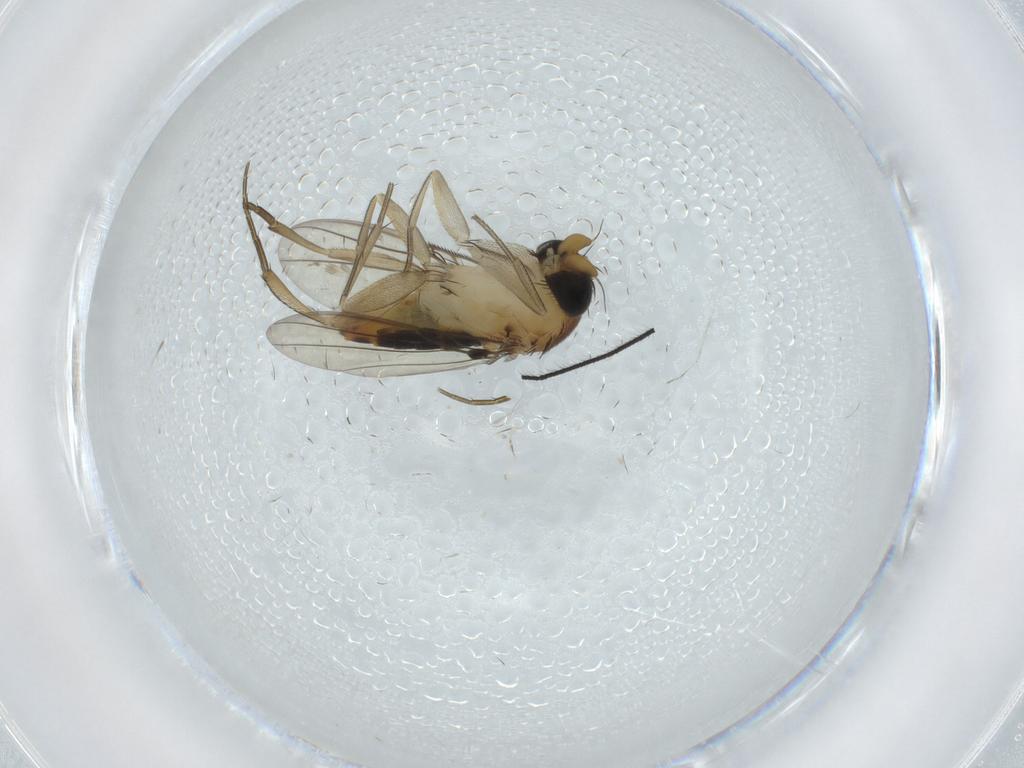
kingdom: Animalia
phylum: Arthropoda
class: Insecta
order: Diptera
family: Phoridae
